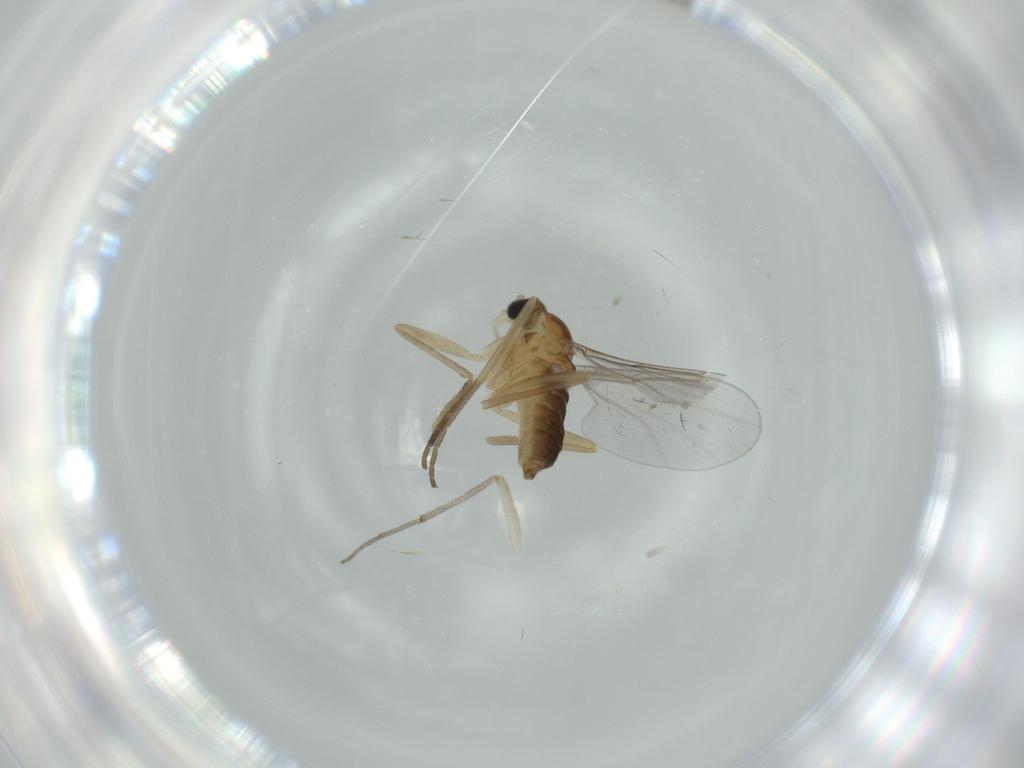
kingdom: Animalia
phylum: Arthropoda
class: Insecta
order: Diptera
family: Cecidomyiidae
